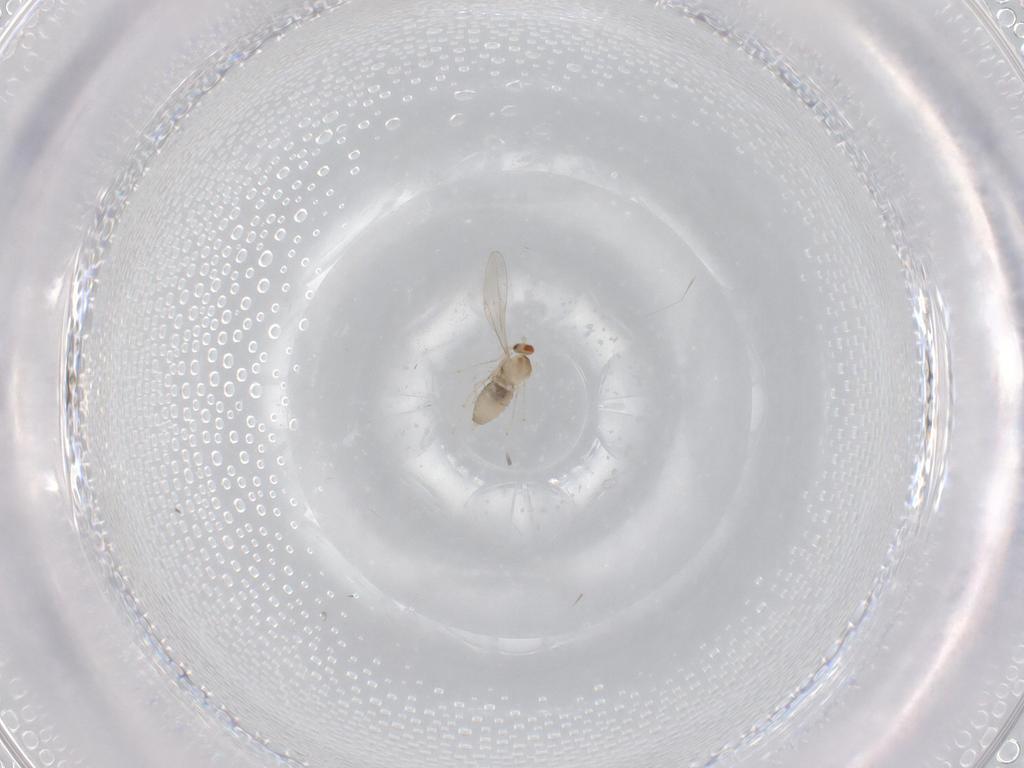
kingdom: Animalia
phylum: Arthropoda
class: Insecta
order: Diptera
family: Cecidomyiidae
